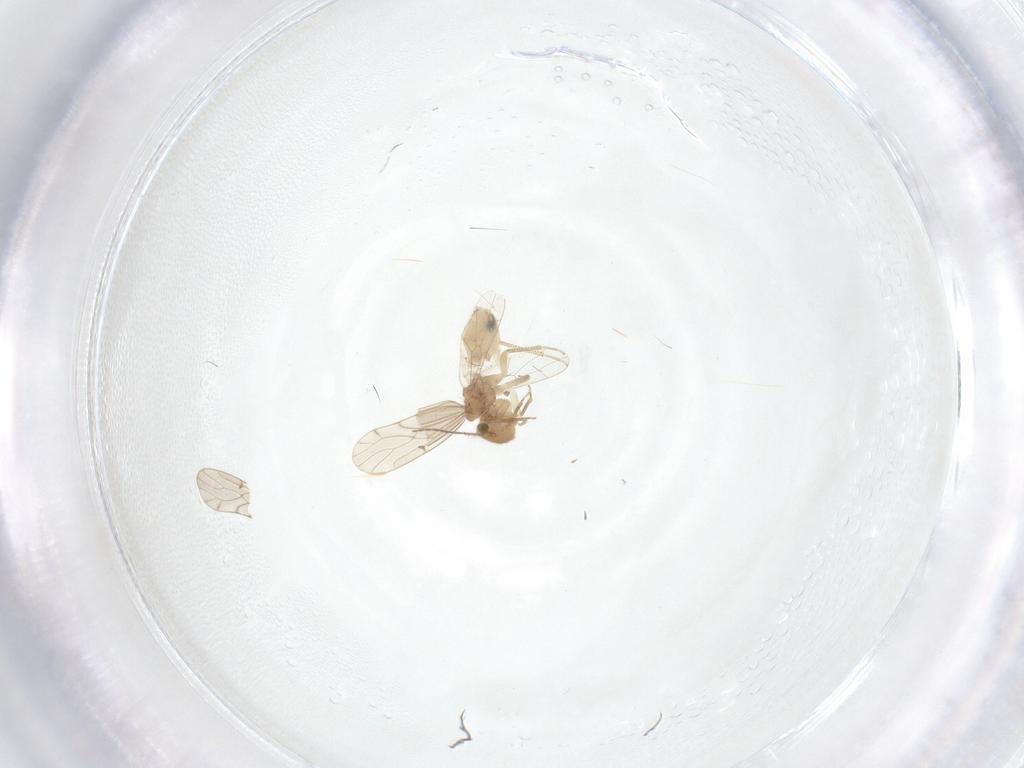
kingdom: Animalia
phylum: Arthropoda
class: Insecta
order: Psocodea
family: Ectopsocidae
